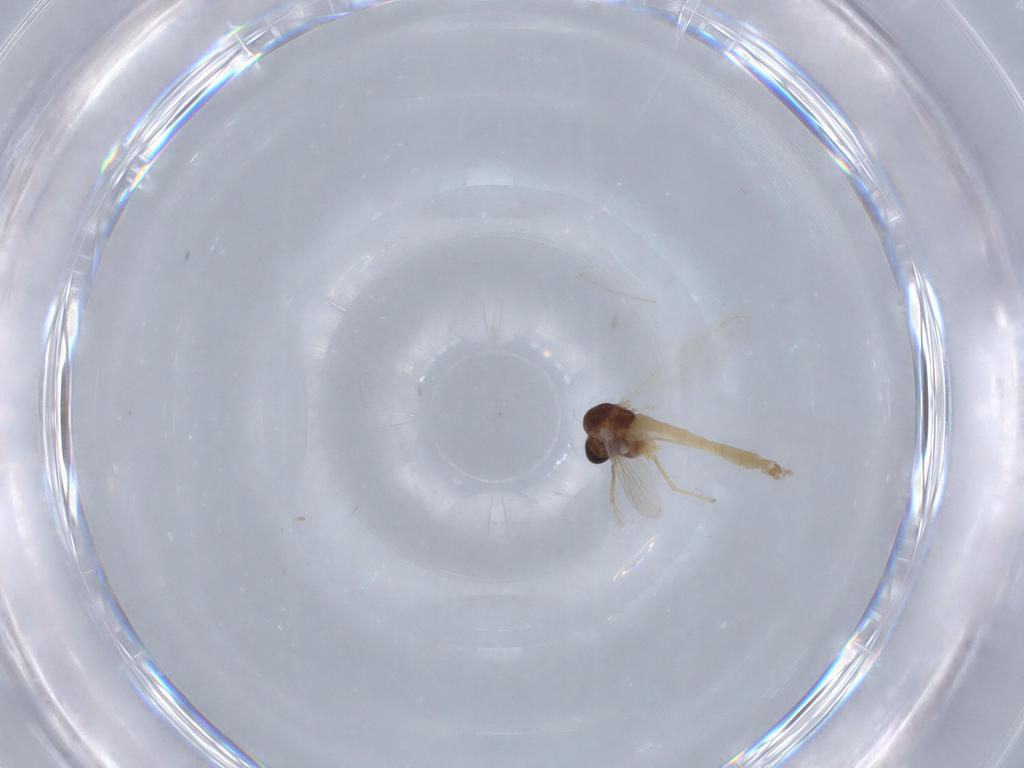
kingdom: Animalia
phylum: Arthropoda
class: Insecta
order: Diptera
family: Chironomidae
